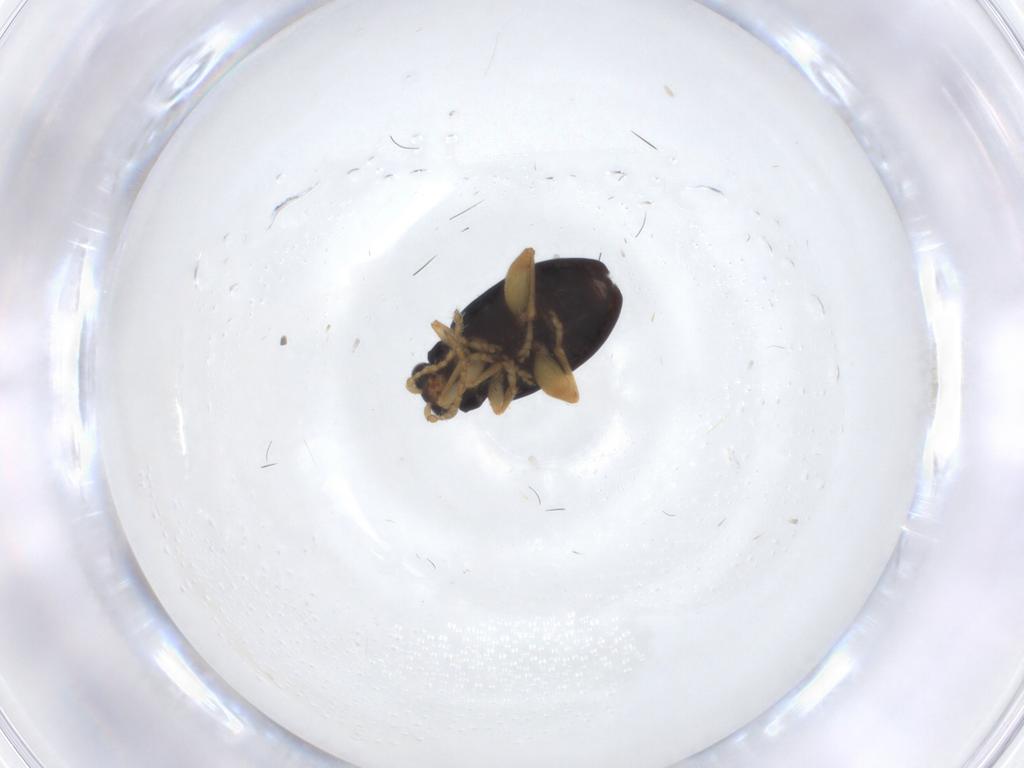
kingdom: Animalia
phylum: Arthropoda
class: Insecta
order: Coleoptera
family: Chrysomelidae
